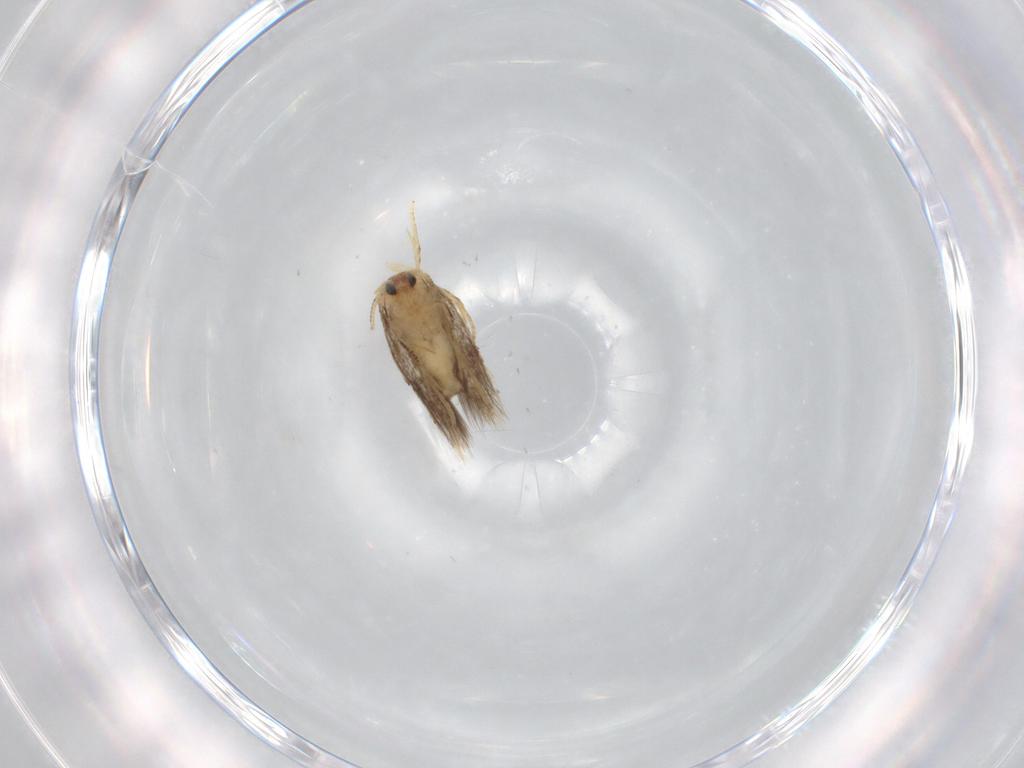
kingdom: Animalia
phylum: Arthropoda
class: Insecta
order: Lepidoptera
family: Nepticulidae
